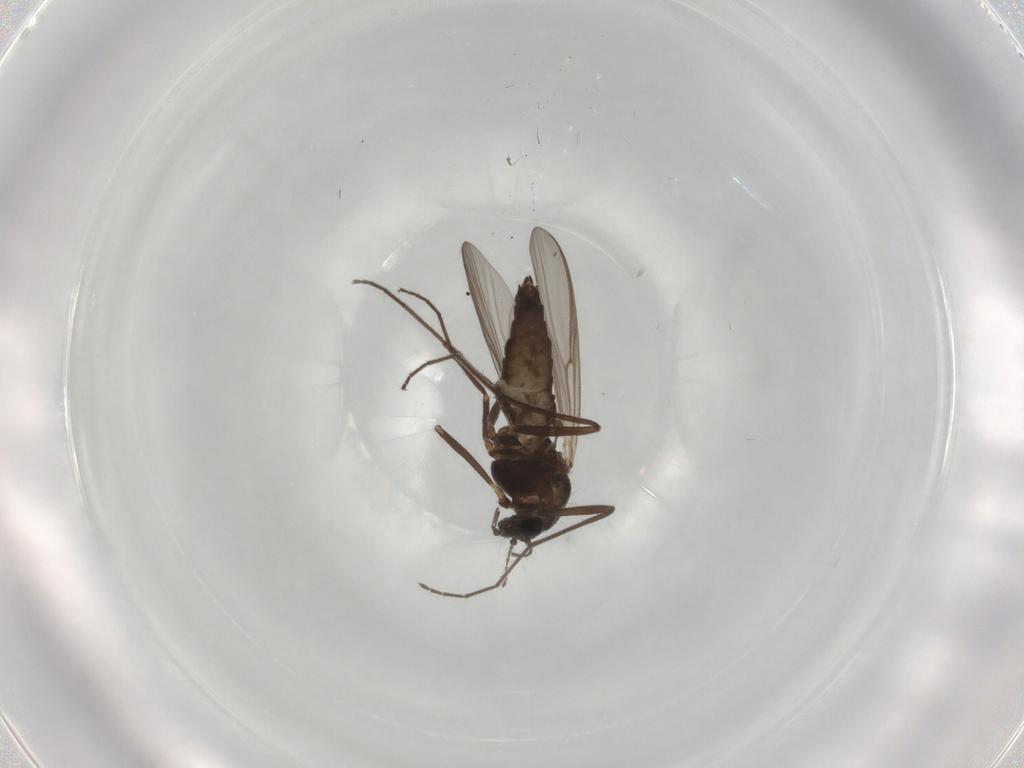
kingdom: Animalia
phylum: Arthropoda
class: Insecta
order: Diptera
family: Chironomidae
